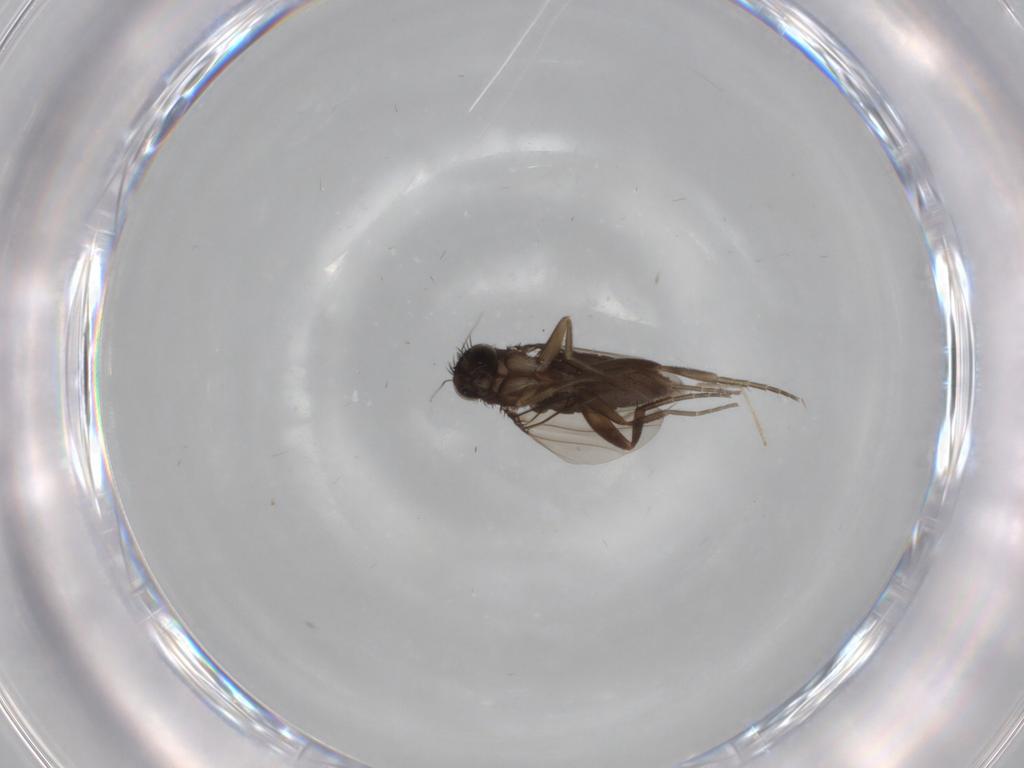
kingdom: Animalia
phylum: Arthropoda
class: Insecta
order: Diptera
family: Phoridae
